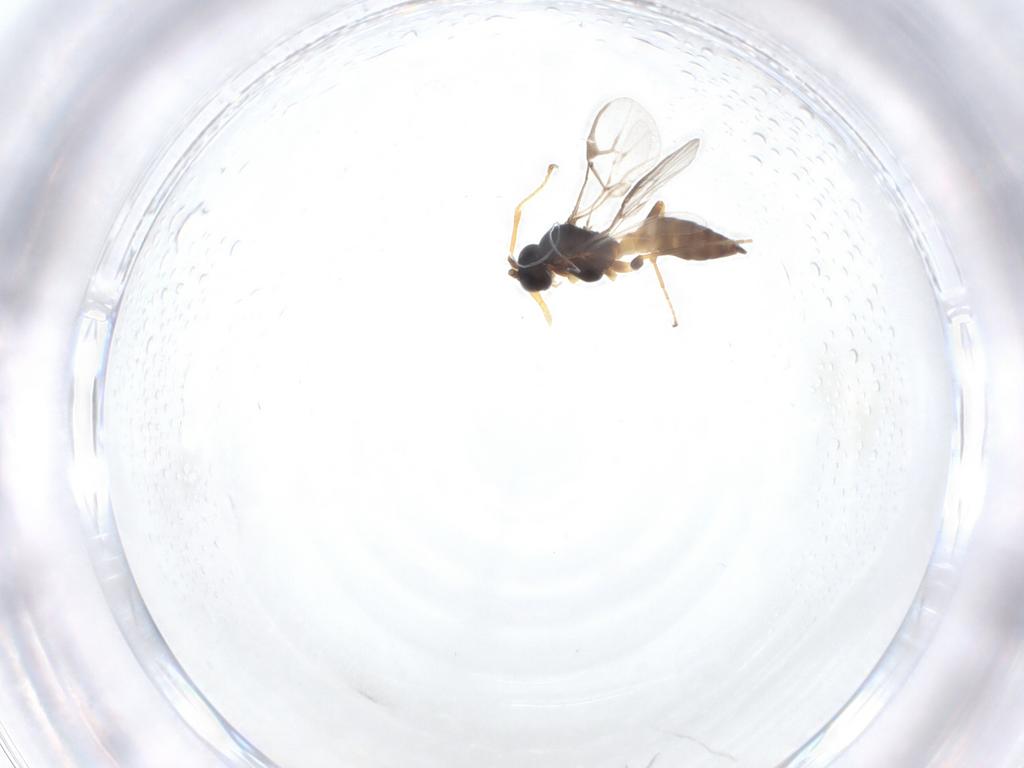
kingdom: Animalia
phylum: Arthropoda
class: Insecta
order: Hymenoptera
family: Braconidae
